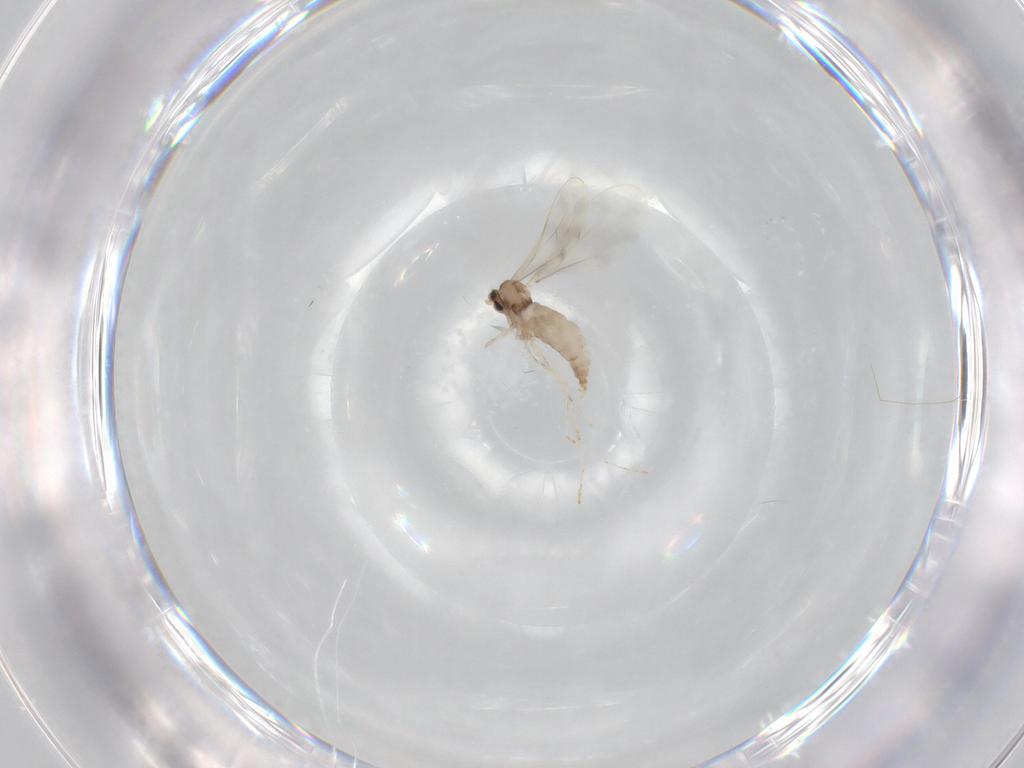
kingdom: Animalia
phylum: Arthropoda
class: Insecta
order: Diptera
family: Cecidomyiidae
